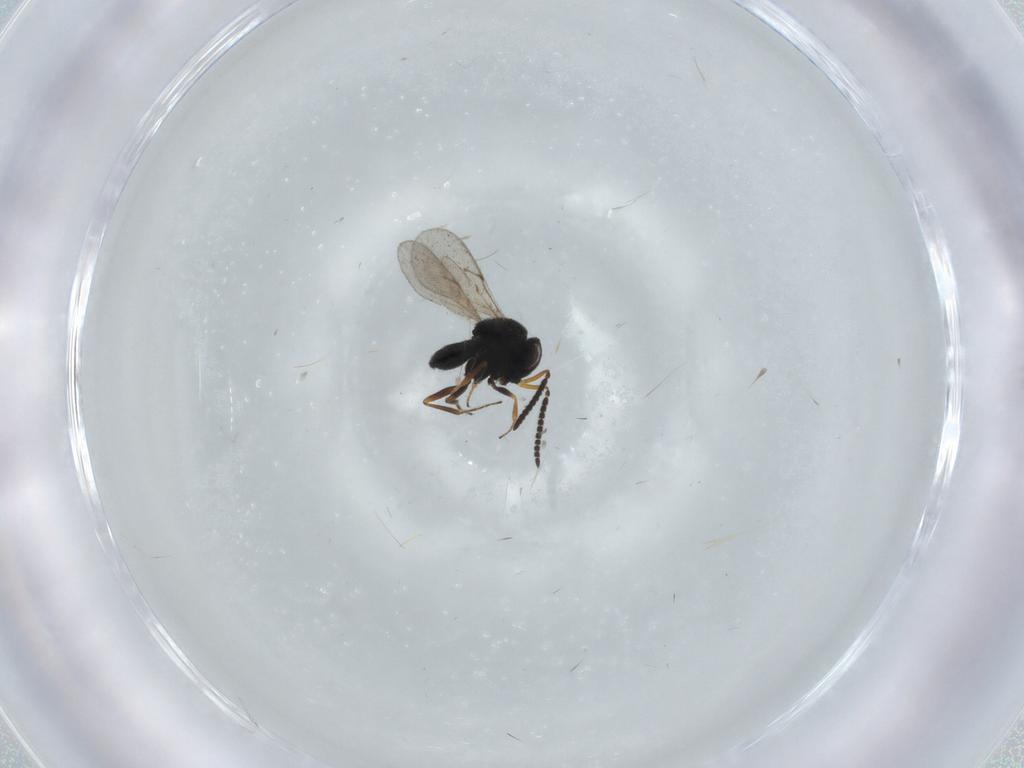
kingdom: Animalia
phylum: Arthropoda
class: Insecta
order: Hymenoptera
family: Scelionidae
